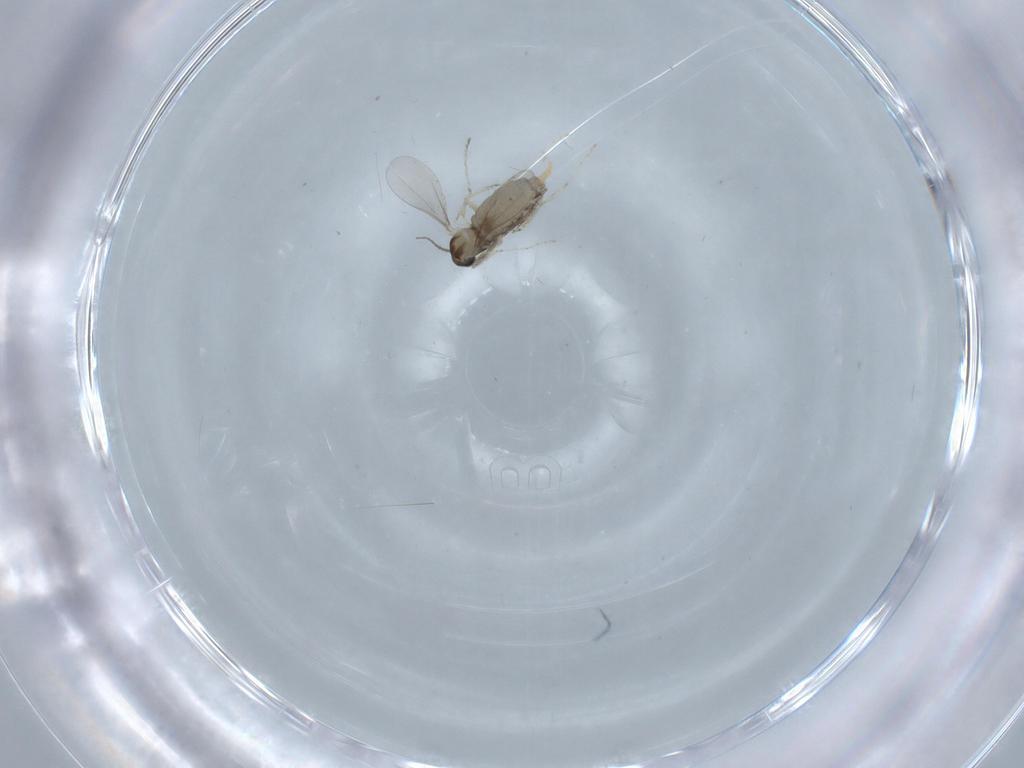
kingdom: Animalia
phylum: Arthropoda
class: Insecta
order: Diptera
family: Cecidomyiidae
